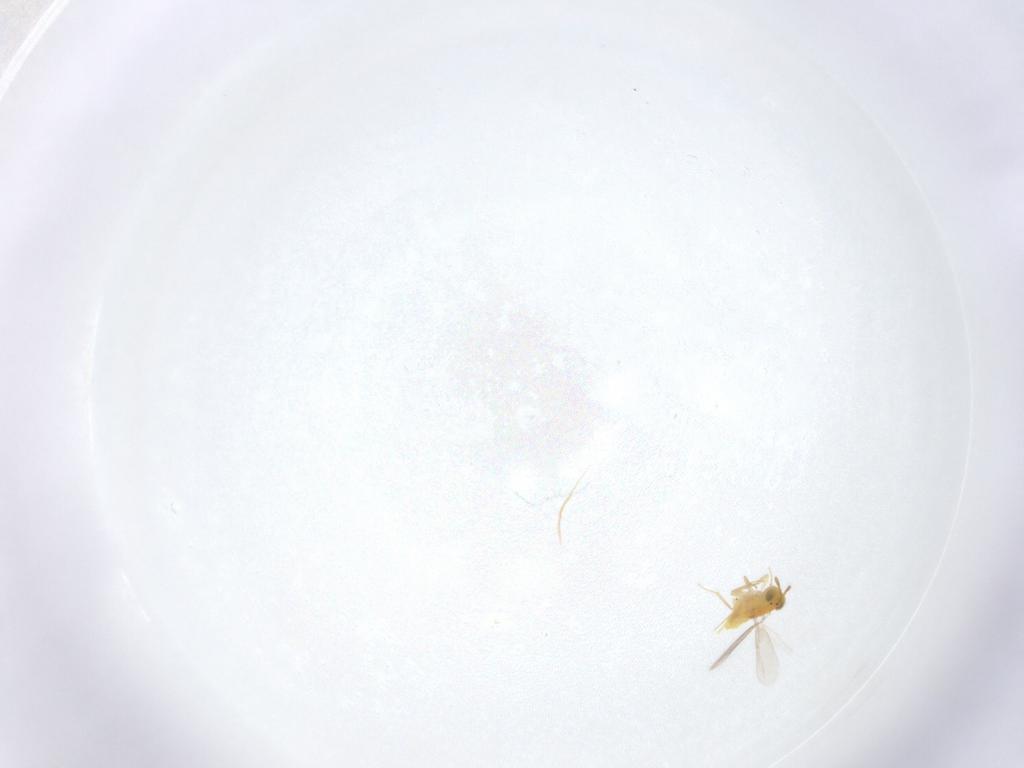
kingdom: Animalia
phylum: Arthropoda
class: Insecta
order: Hymenoptera
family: Aphelinidae
